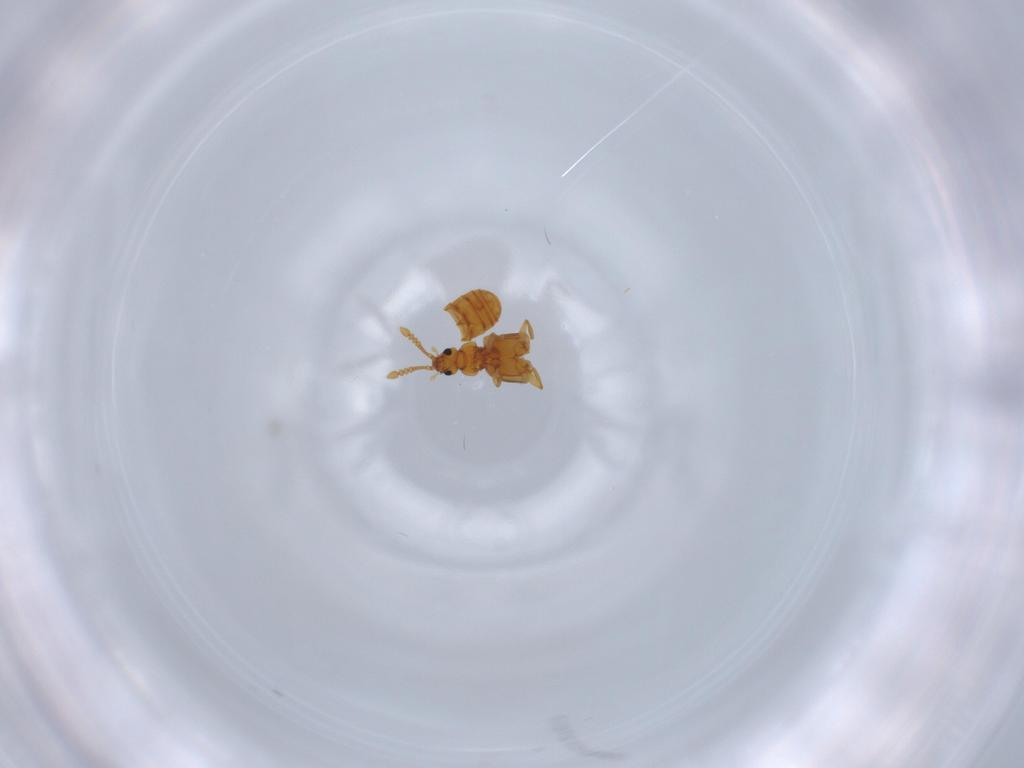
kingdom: Animalia
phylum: Arthropoda
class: Insecta
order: Coleoptera
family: Staphylinidae
